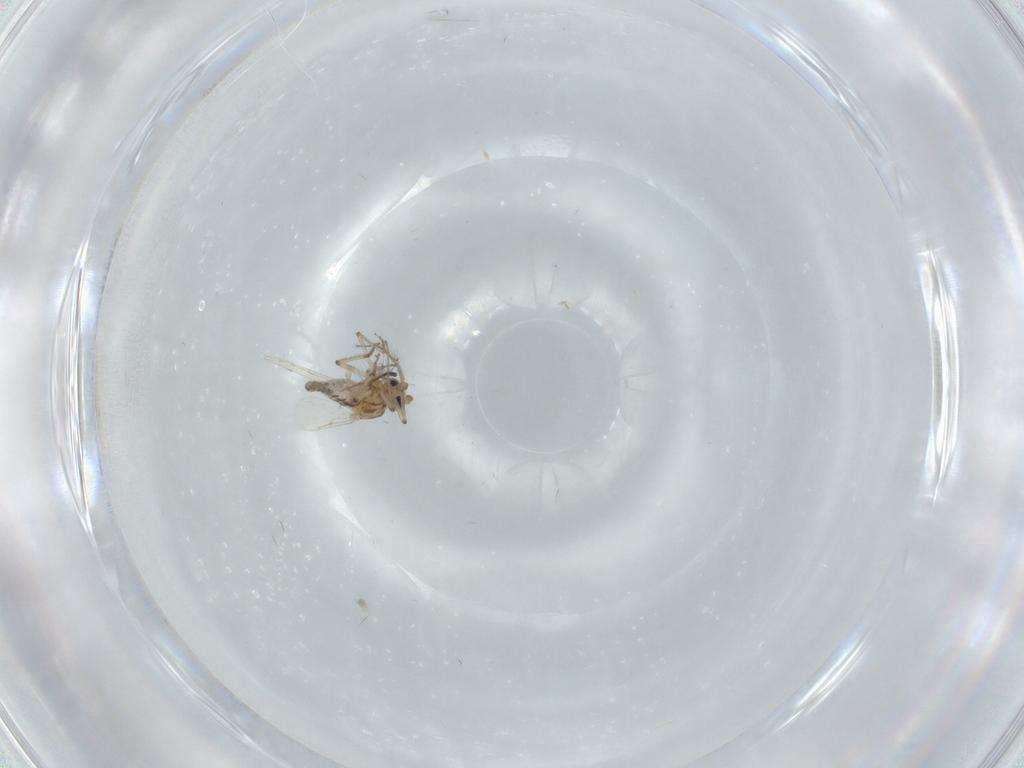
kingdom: Animalia
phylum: Arthropoda
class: Insecta
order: Diptera
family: Ceratopogonidae
